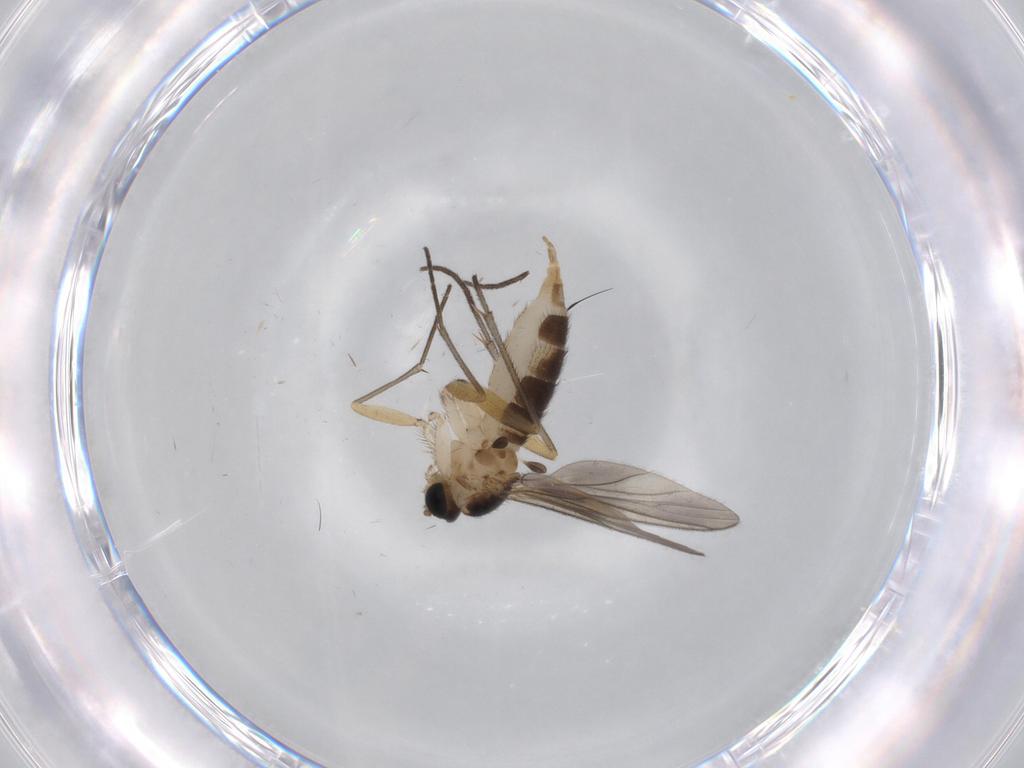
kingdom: Animalia
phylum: Arthropoda
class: Insecta
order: Diptera
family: Sciaridae
